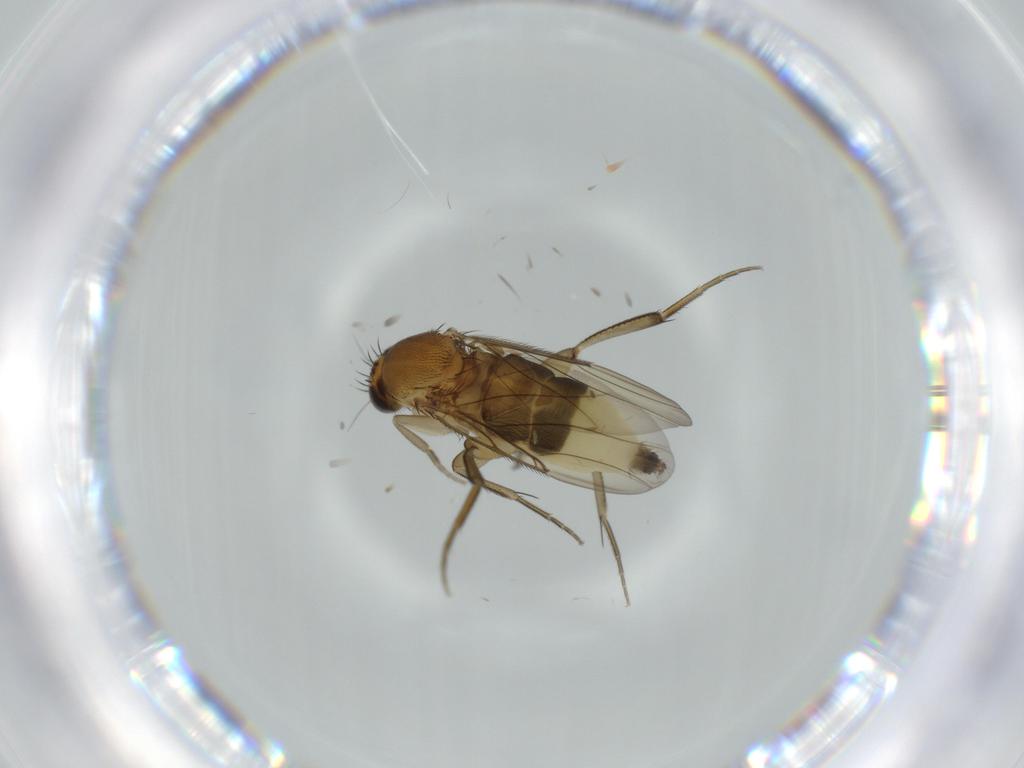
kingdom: Animalia
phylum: Arthropoda
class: Insecta
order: Diptera
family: Phoridae
